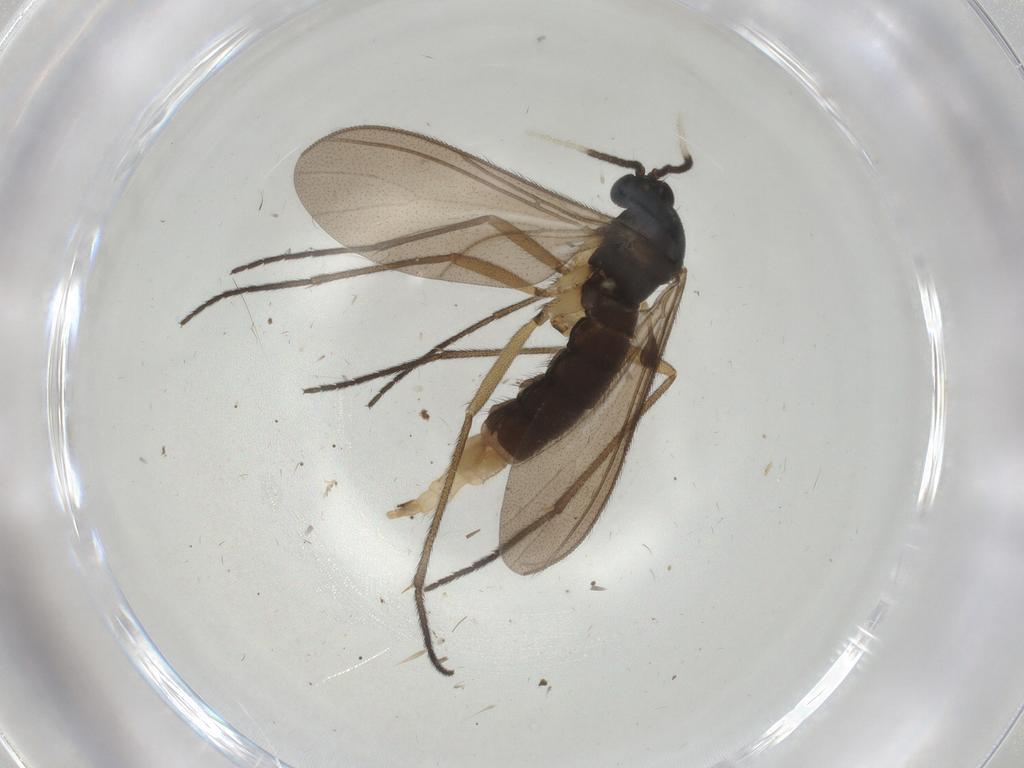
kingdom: Animalia
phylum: Arthropoda
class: Insecta
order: Diptera
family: Sciaridae
